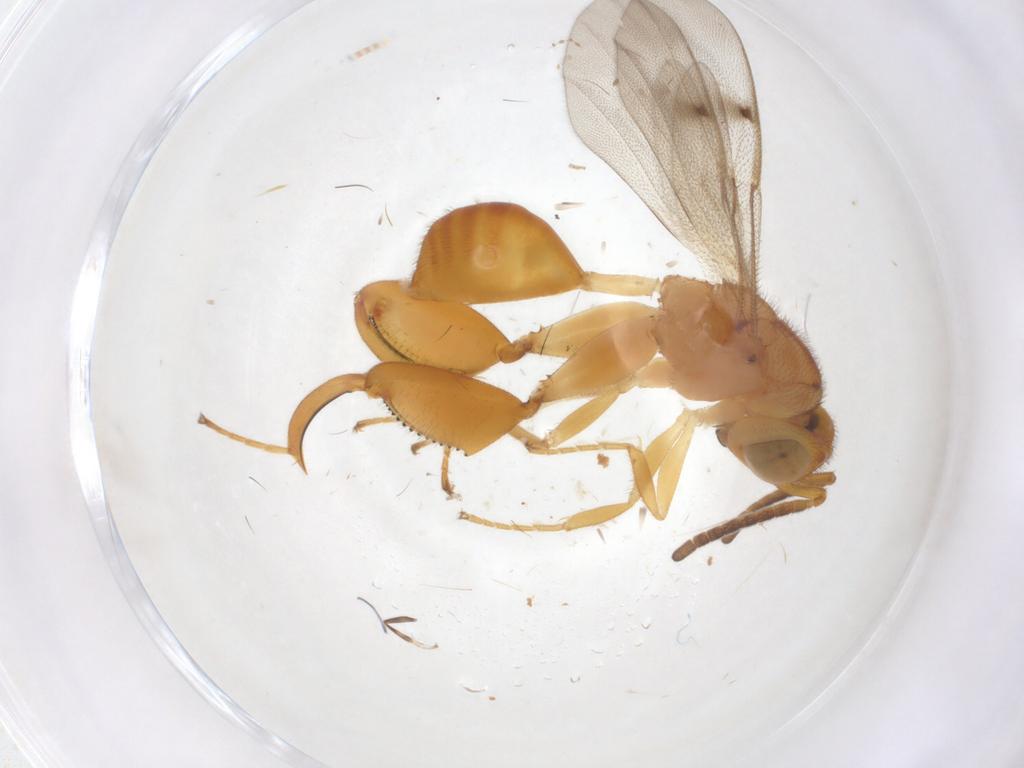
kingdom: Animalia
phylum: Arthropoda
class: Insecta
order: Hymenoptera
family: Chalcididae
